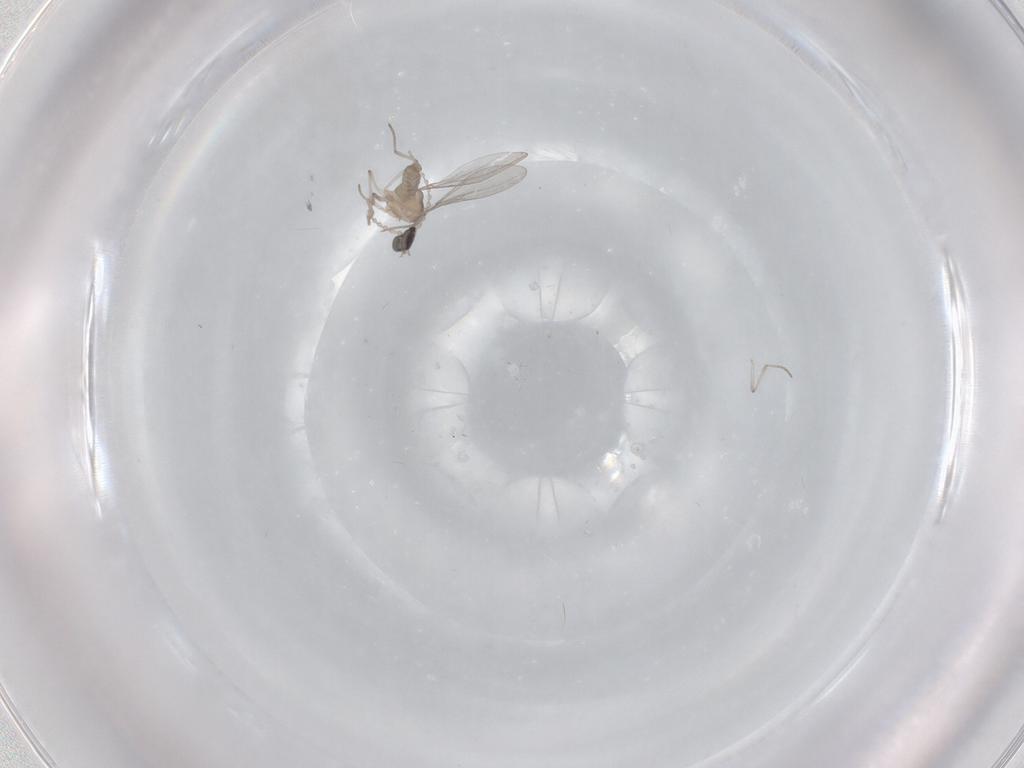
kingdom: Animalia
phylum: Arthropoda
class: Insecta
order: Diptera
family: Cecidomyiidae
